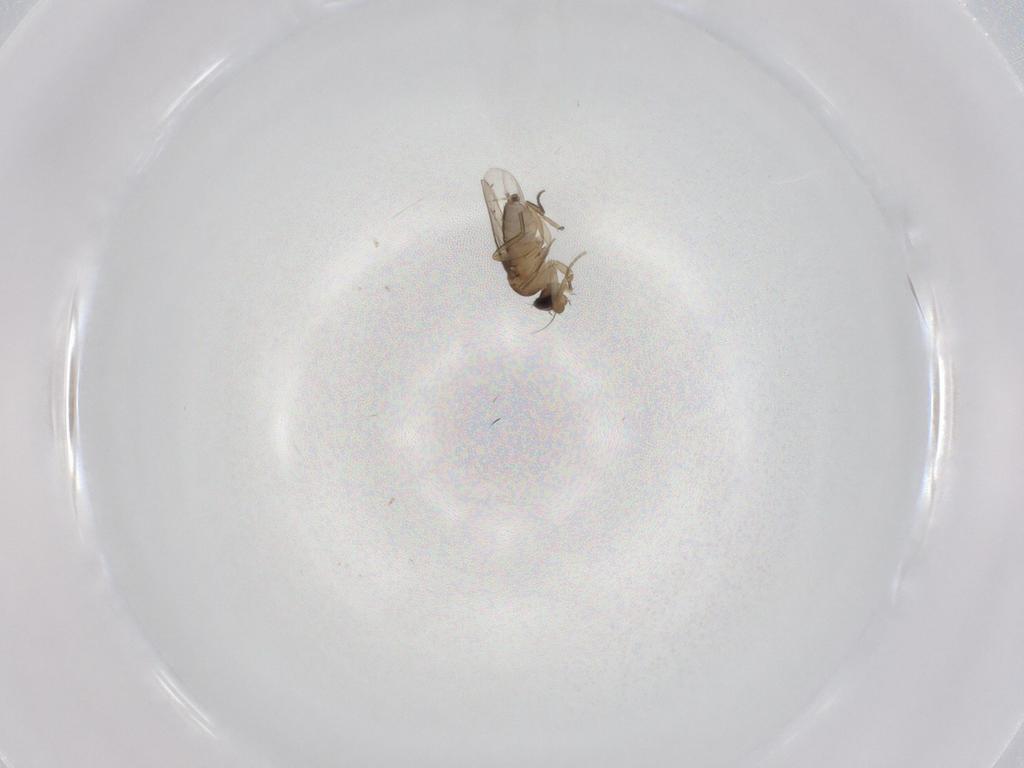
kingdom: Animalia
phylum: Arthropoda
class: Insecta
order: Diptera
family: Phoridae
